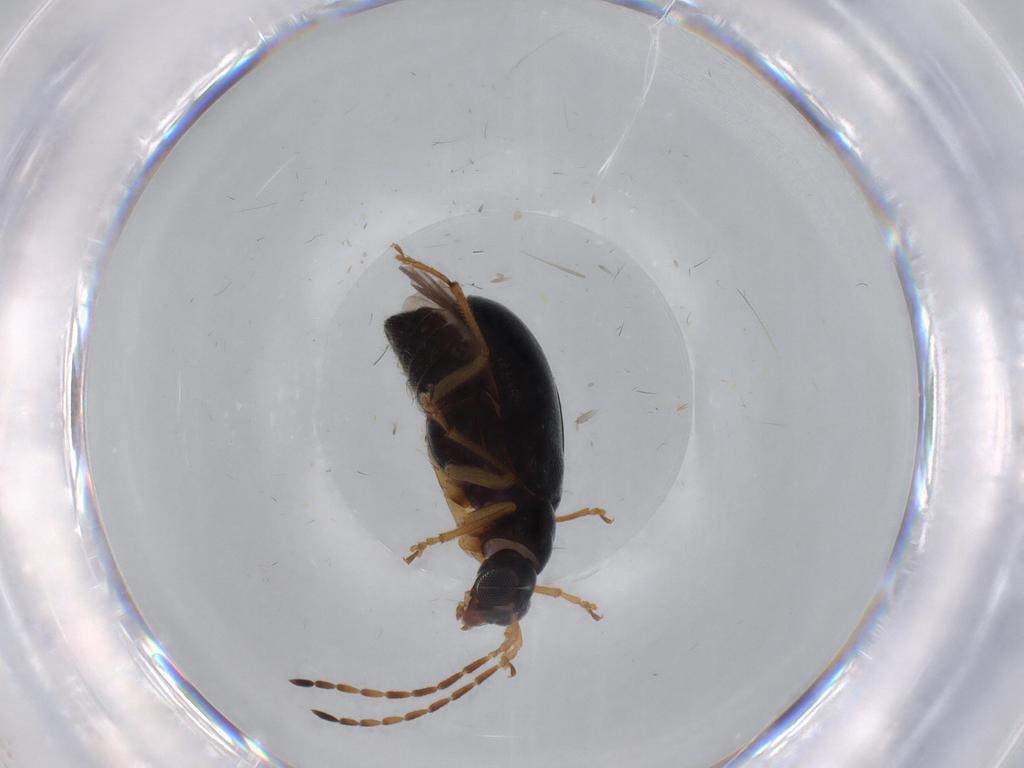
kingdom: Animalia
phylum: Arthropoda
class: Insecta
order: Coleoptera
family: Chrysomelidae
